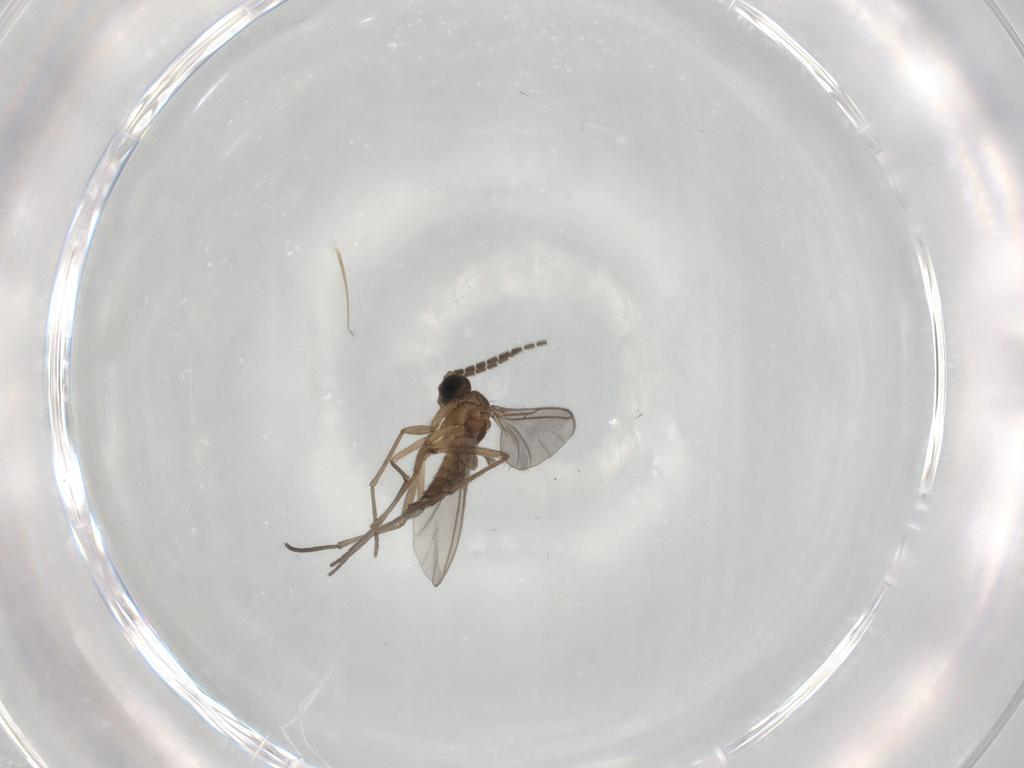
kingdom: Animalia
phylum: Arthropoda
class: Insecta
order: Diptera
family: Sciaridae
